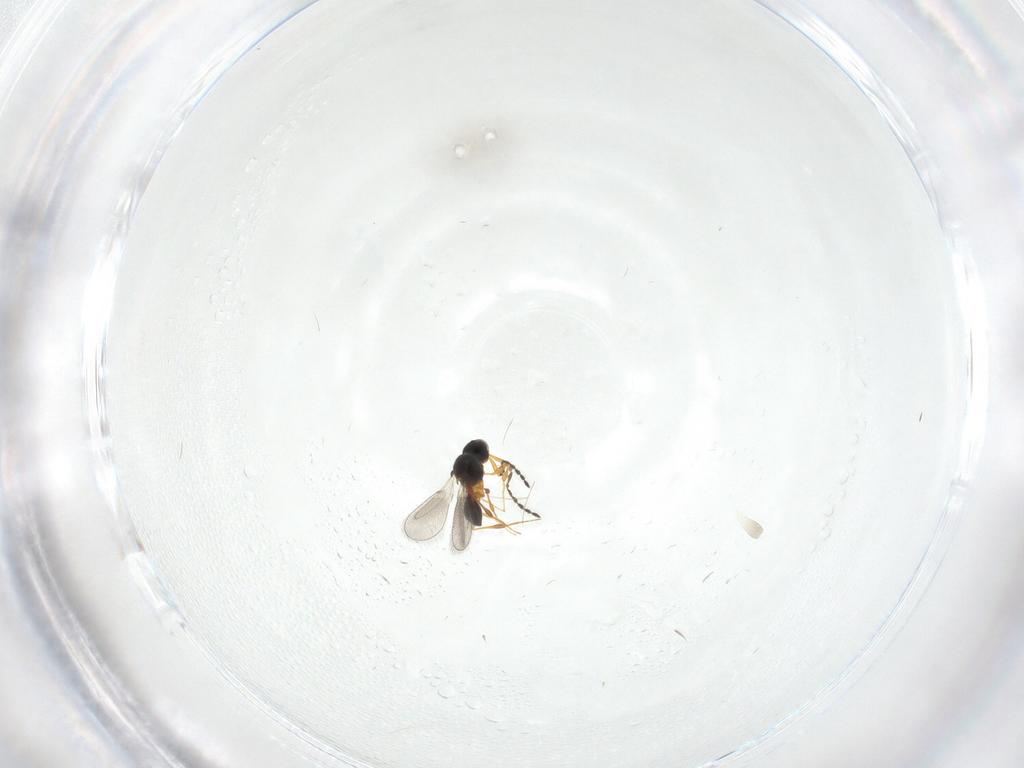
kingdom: Animalia
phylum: Arthropoda
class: Insecta
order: Hymenoptera
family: Platygastridae
